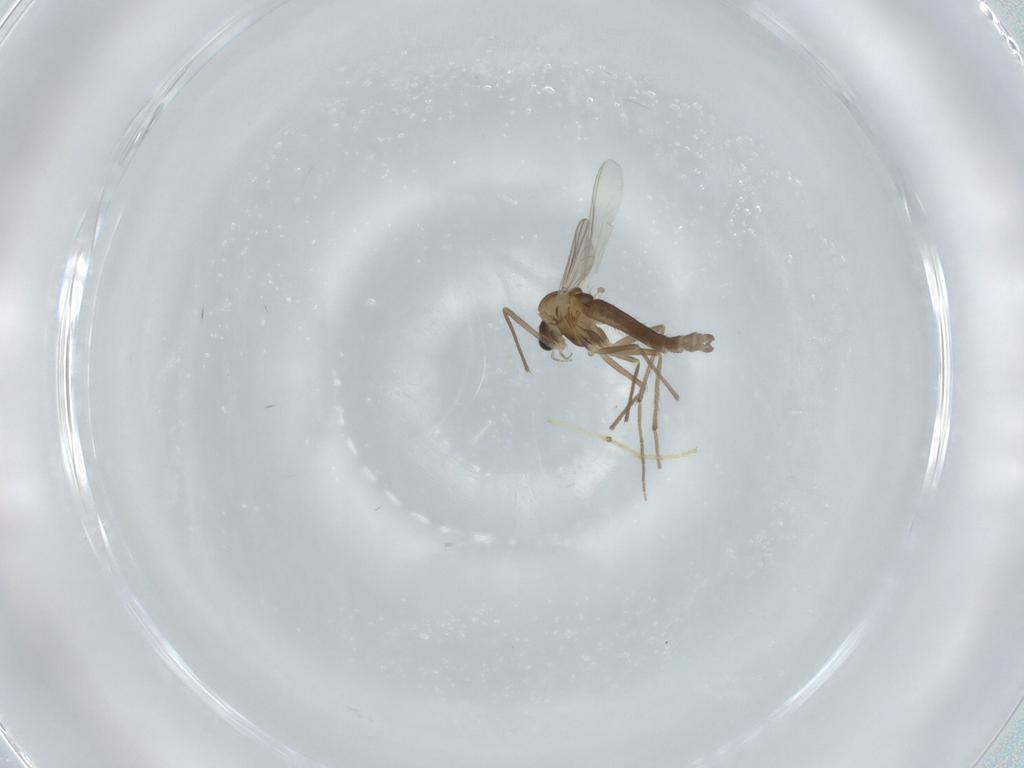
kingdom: Animalia
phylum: Arthropoda
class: Insecta
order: Diptera
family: Chironomidae
